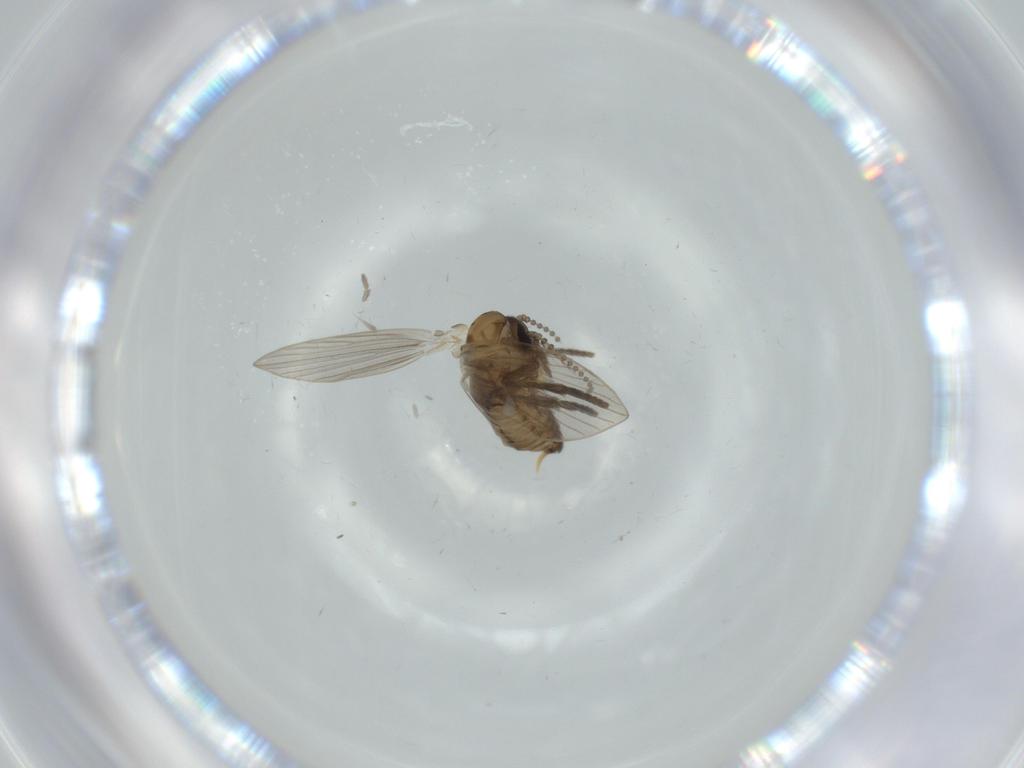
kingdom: Animalia
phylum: Arthropoda
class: Insecta
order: Diptera
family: Psychodidae
